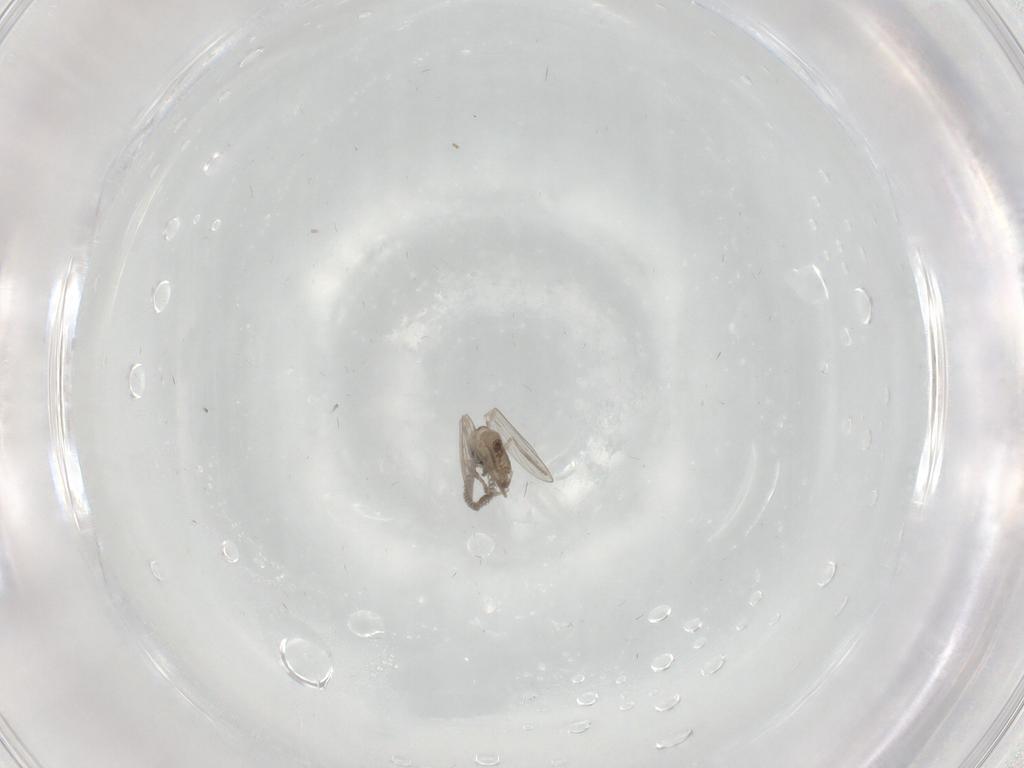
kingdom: Animalia
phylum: Arthropoda
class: Insecta
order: Diptera
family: Psychodidae
